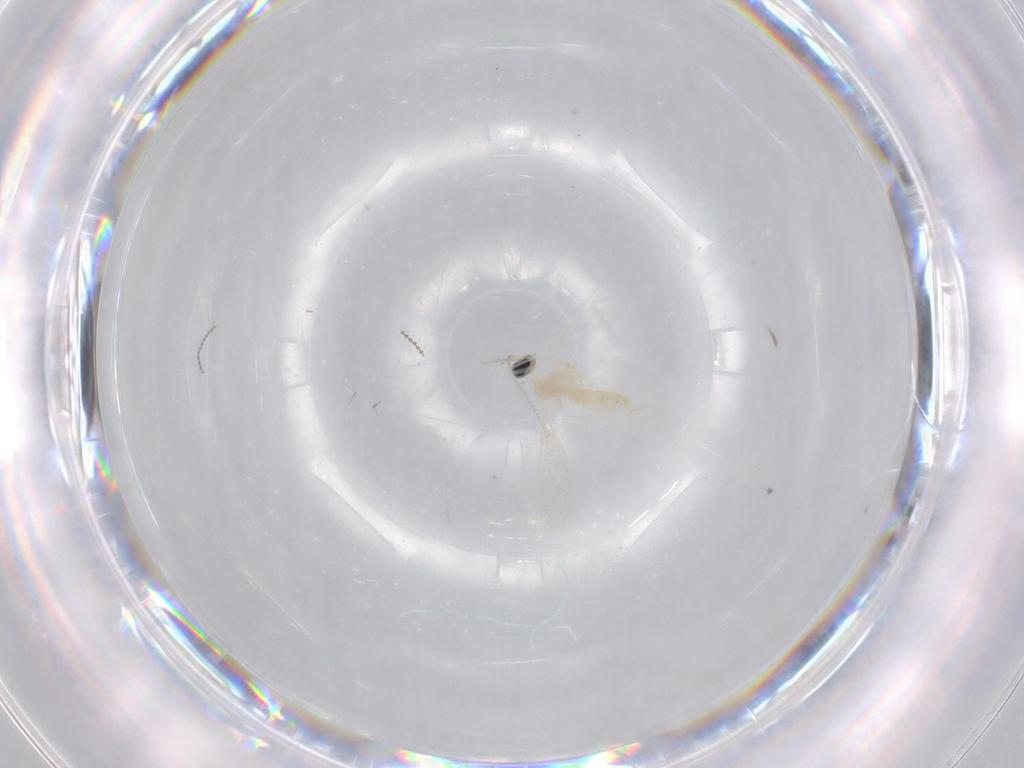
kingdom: Animalia
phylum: Arthropoda
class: Insecta
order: Diptera
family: Cecidomyiidae
